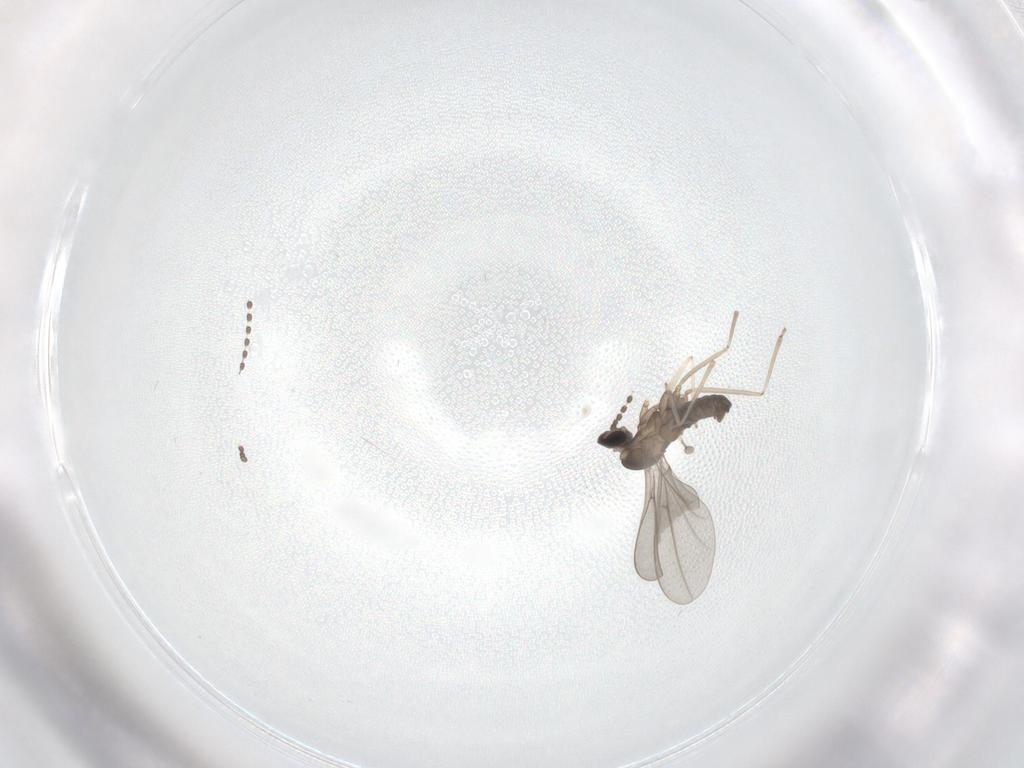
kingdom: Animalia
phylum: Arthropoda
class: Insecta
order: Diptera
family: Cecidomyiidae
